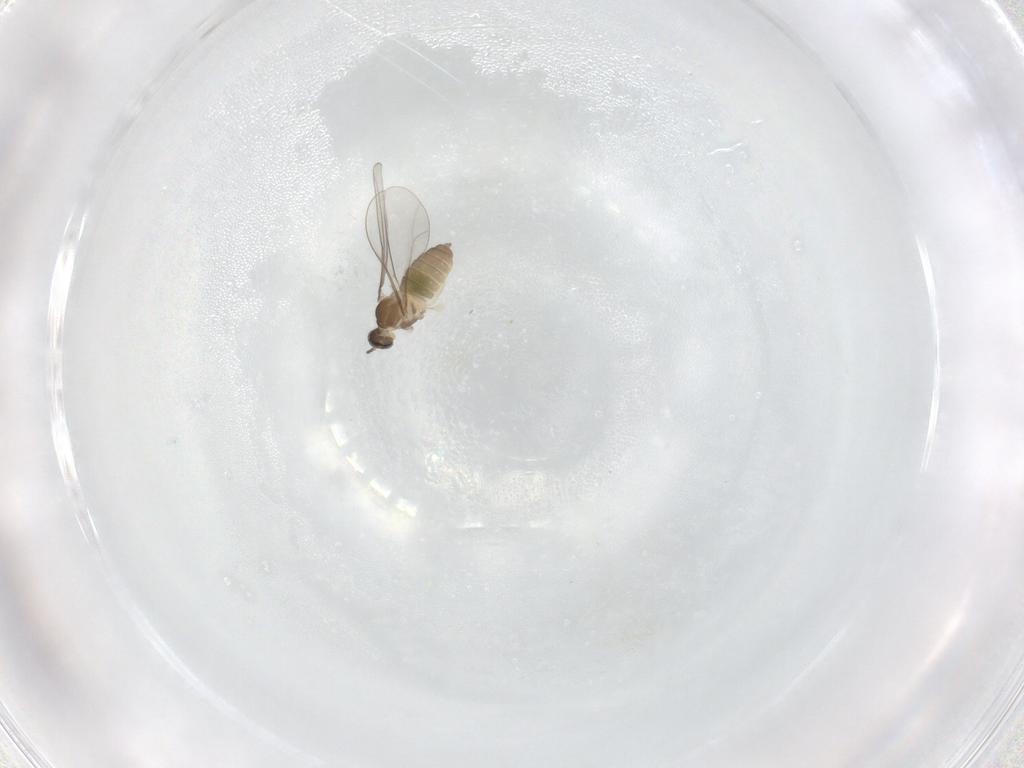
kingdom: Animalia
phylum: Arthropoda
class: Insecta
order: Diptera
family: Cecidomyiidae
